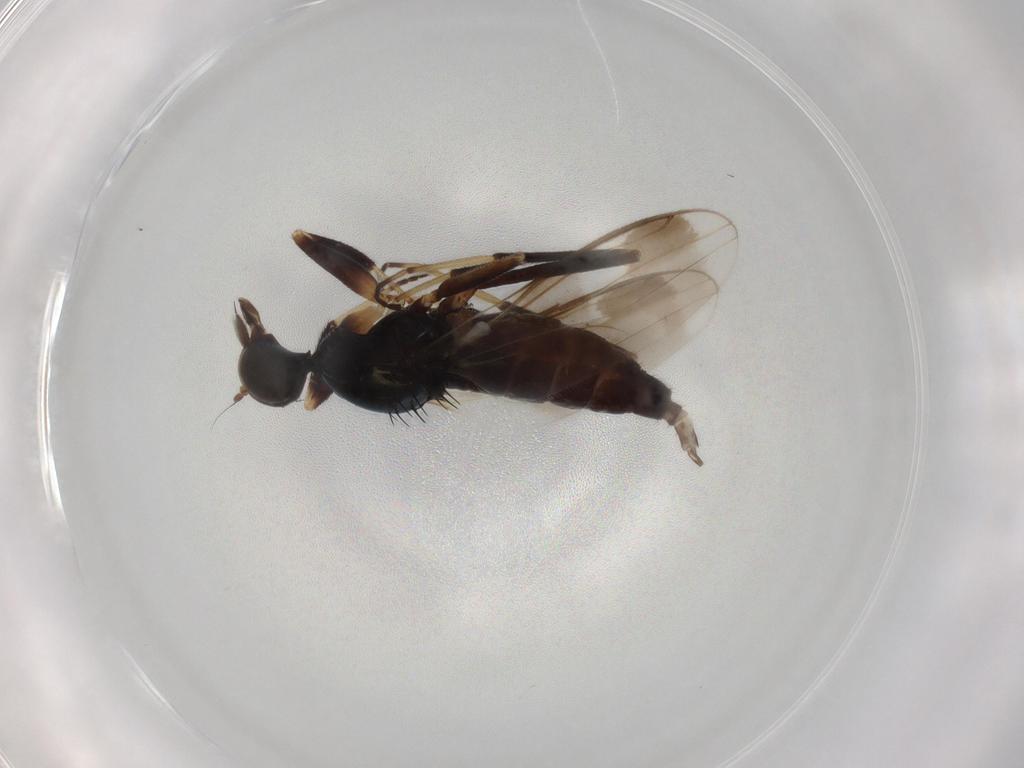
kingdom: Animalia
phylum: Arthropoda
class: Insecta
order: Diptera
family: Hybotidae
